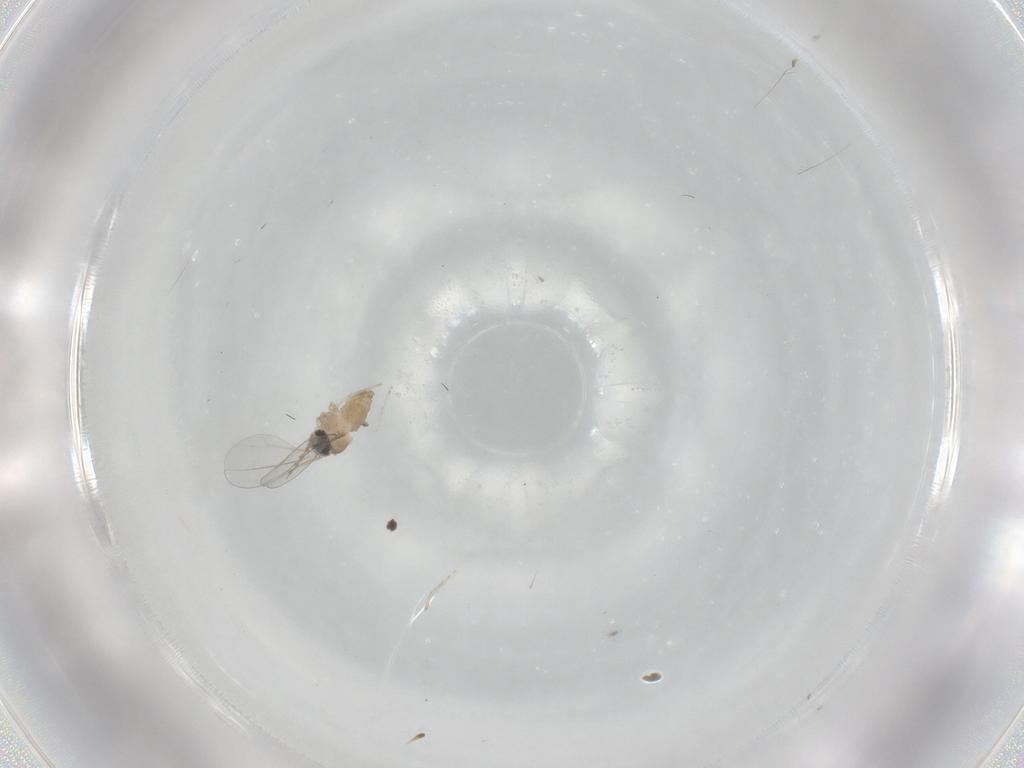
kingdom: Animalia
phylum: Arthropoda
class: Insecta
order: Diptera
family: Cecidomyiidae
